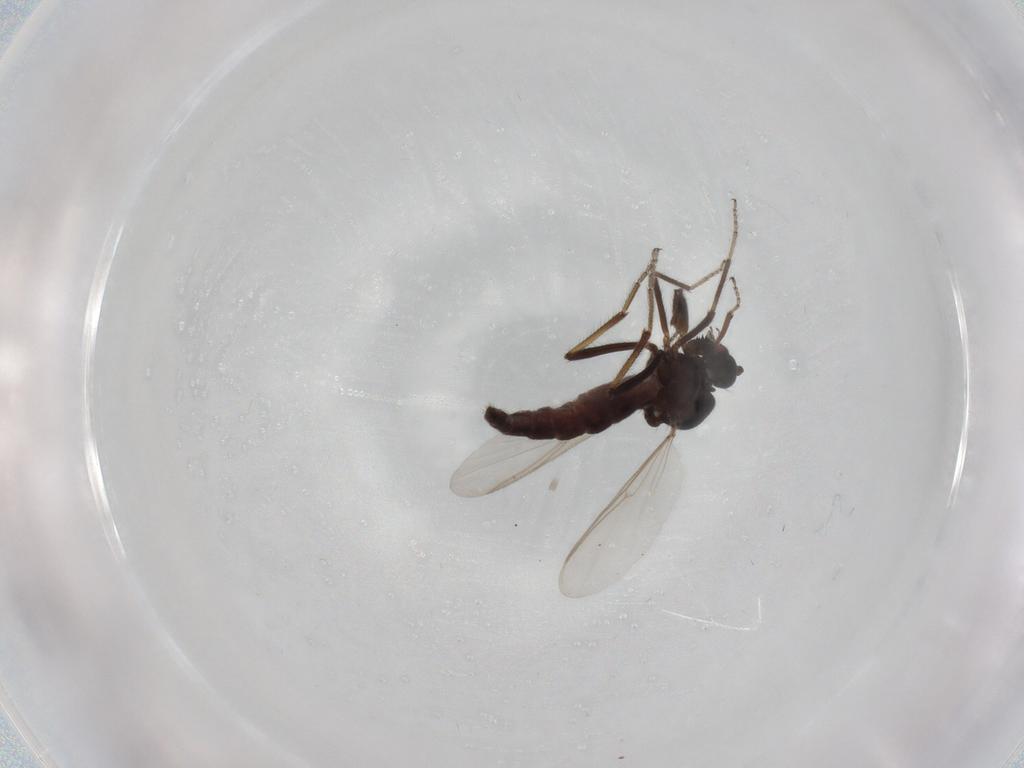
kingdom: Animalia
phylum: Arthropoda
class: Insecta
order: Diptera
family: Ceratopogonidae
